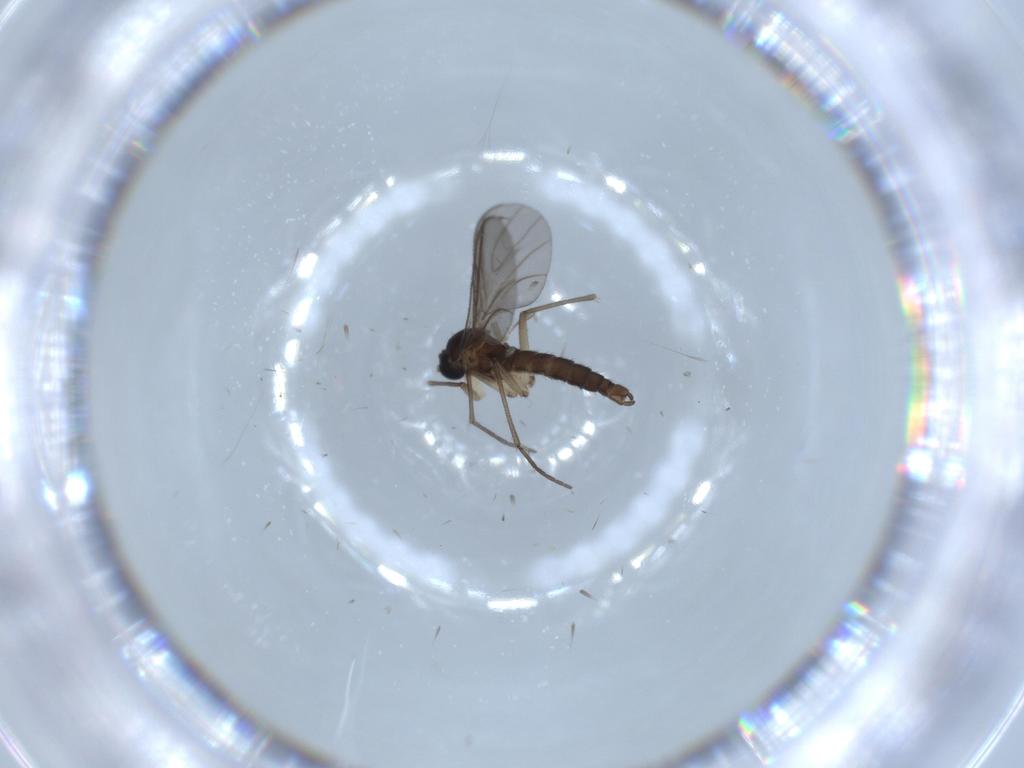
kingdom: Animalia
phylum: Arthropoda
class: Insecta
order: Diptera
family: Sciaridae
